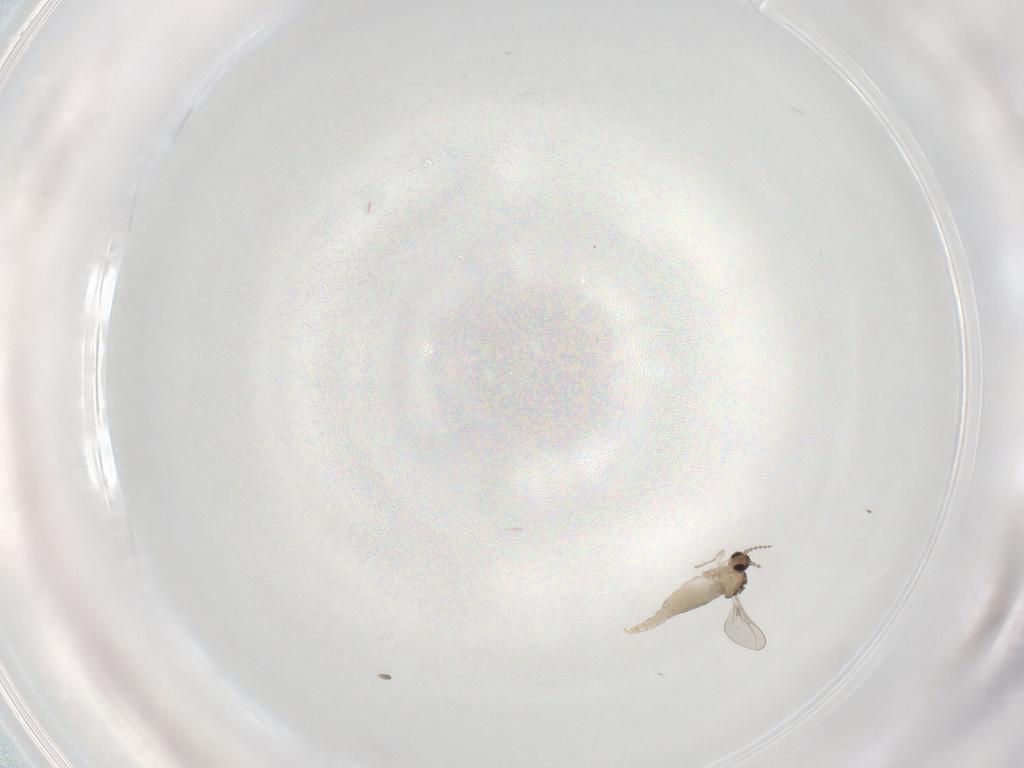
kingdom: Animalia
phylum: Arthropoda
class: Insecta
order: Diptera
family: Cecidomyiidae
